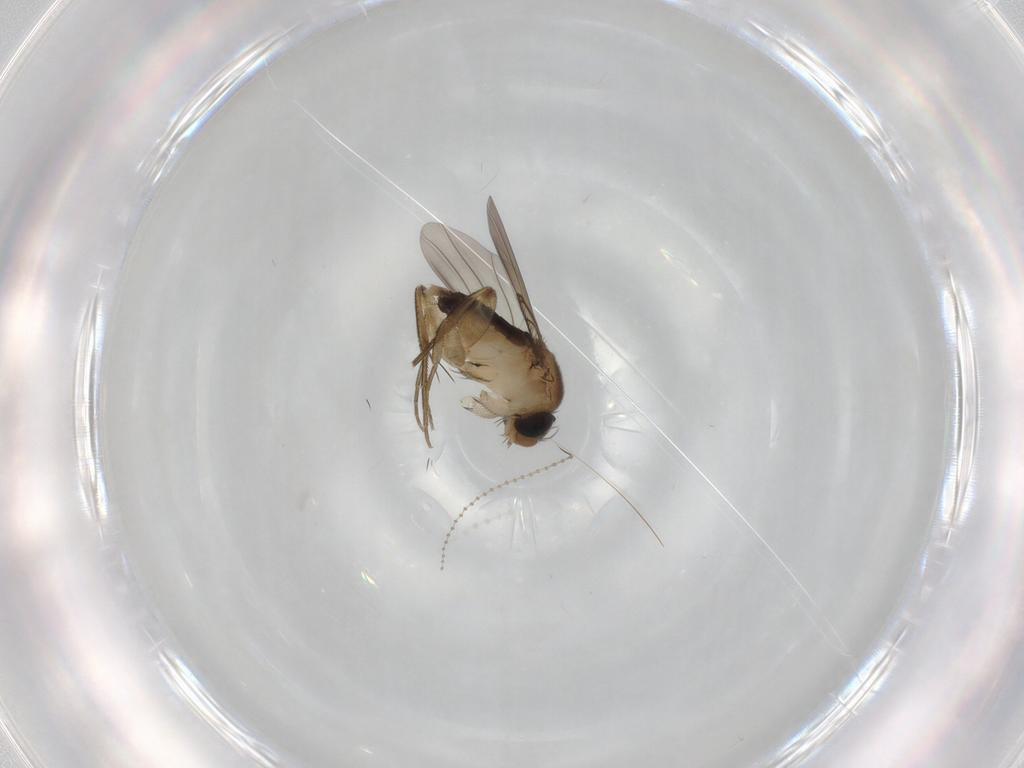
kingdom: Animalia
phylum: Arthropoda
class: Insecta
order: Diptera
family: Phoridae
